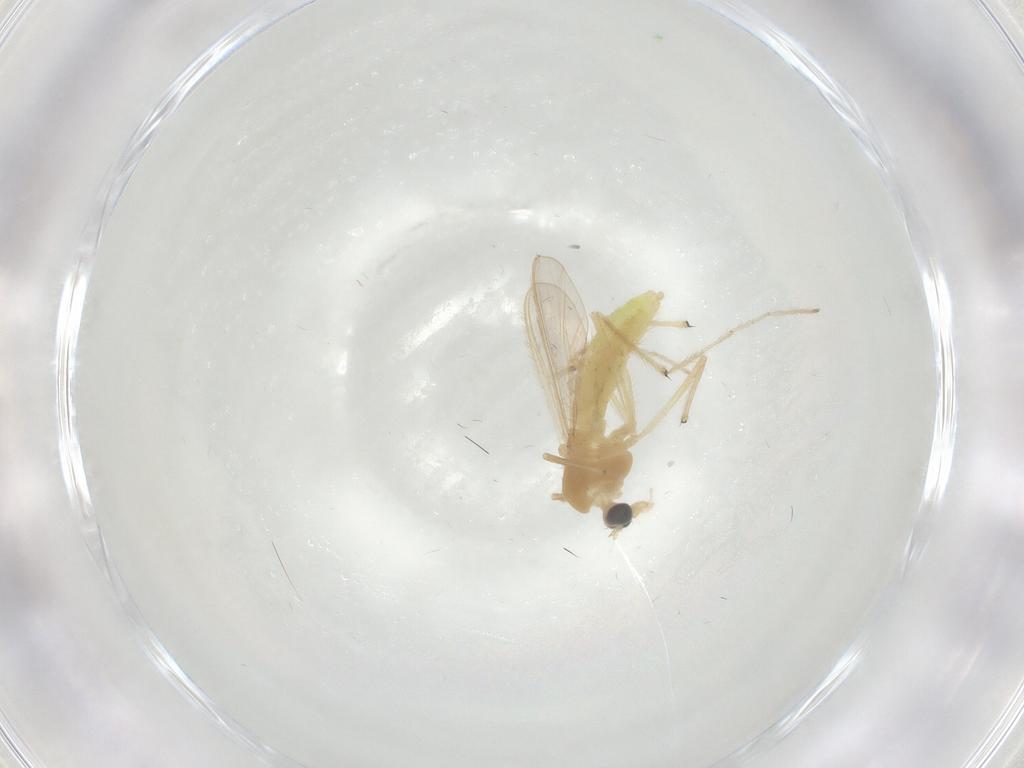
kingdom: Animalia
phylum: Arthropoda
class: Insecta
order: Diptera
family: Chironomidae
